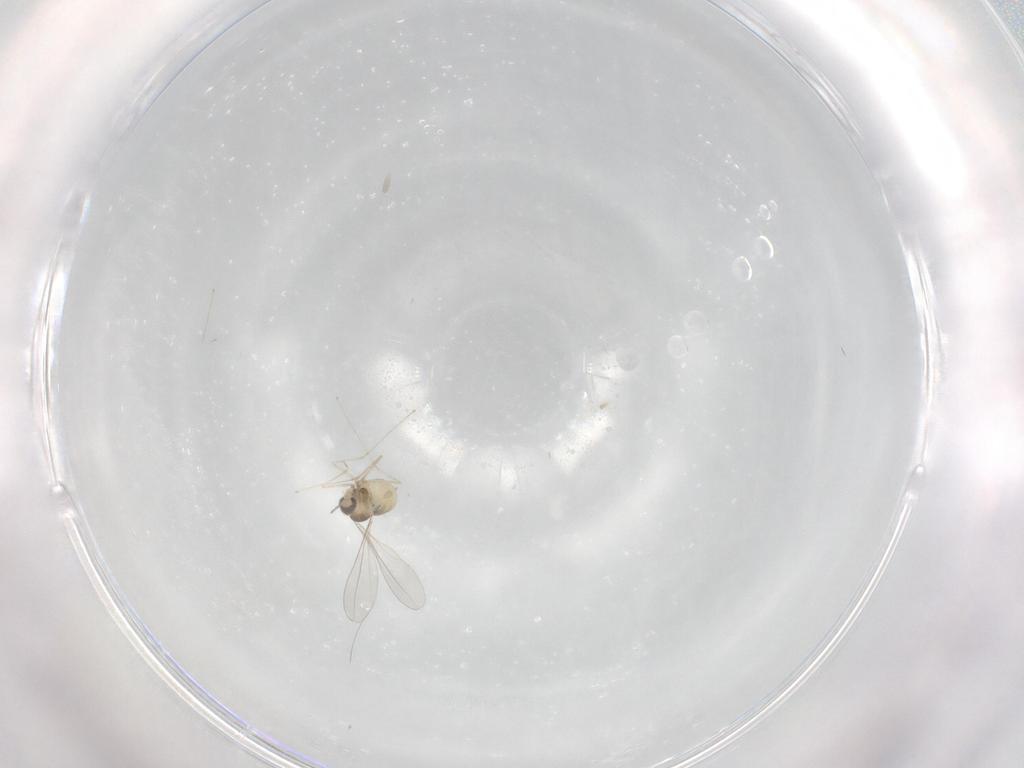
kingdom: Animalia
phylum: Arthropoda
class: Insecta
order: Diptera
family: Cecidomyiidae
